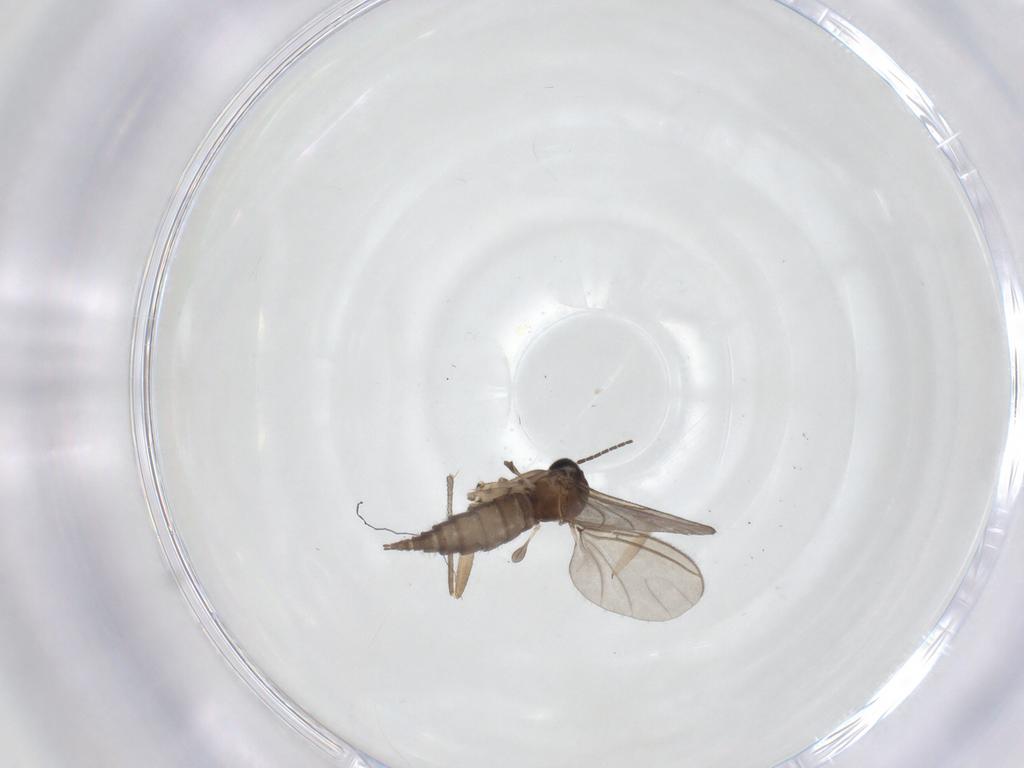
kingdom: Animalia
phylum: Arthropoda
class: Insecta
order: Diptera
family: Sciaridae
